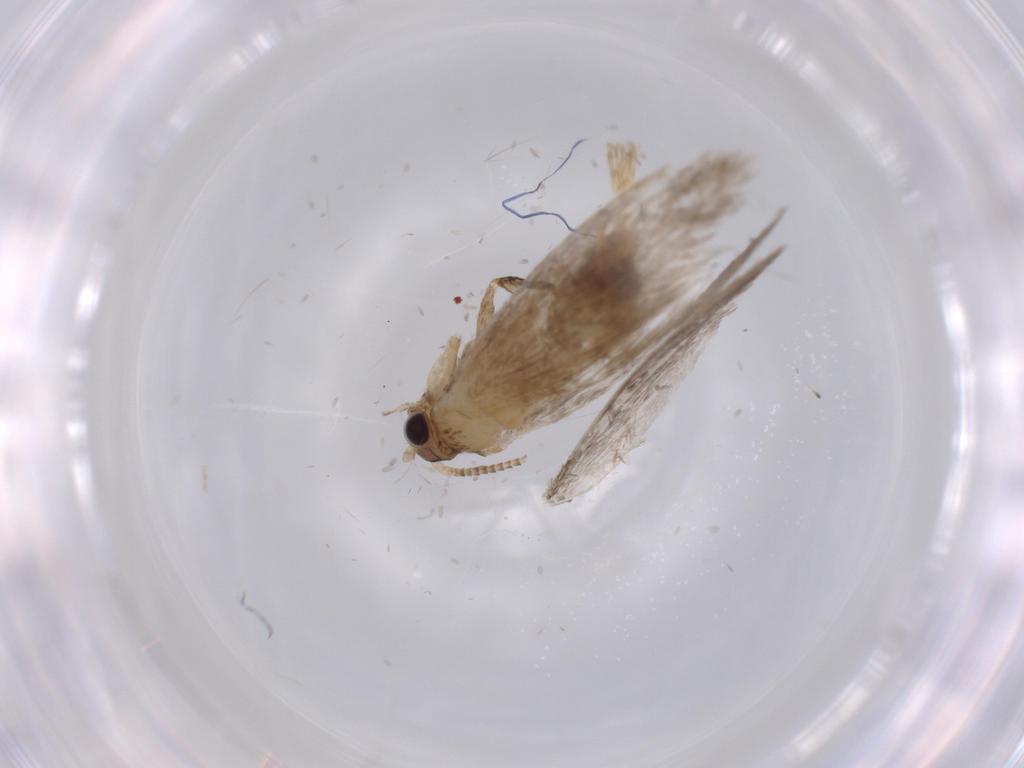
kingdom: Animalia
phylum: Arthropoda
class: Insecta
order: Lepidoptera
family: Tineidae
